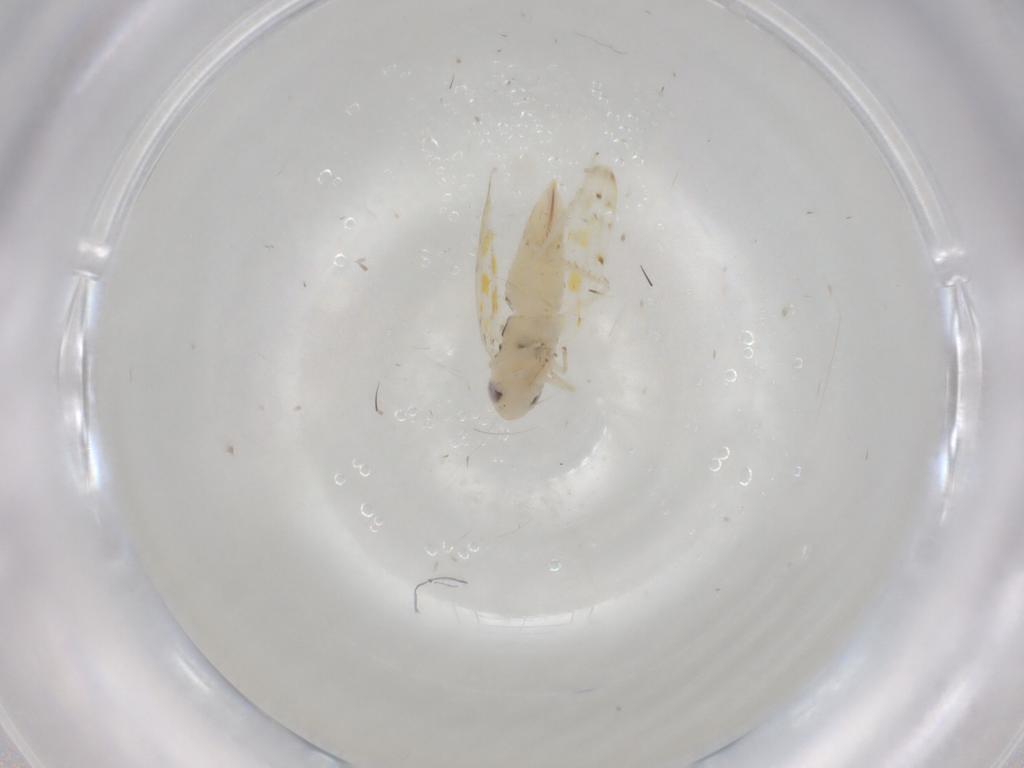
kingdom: Animalia
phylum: Arthropoda
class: Insecta
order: Hemiptera
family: Cicadellidae
